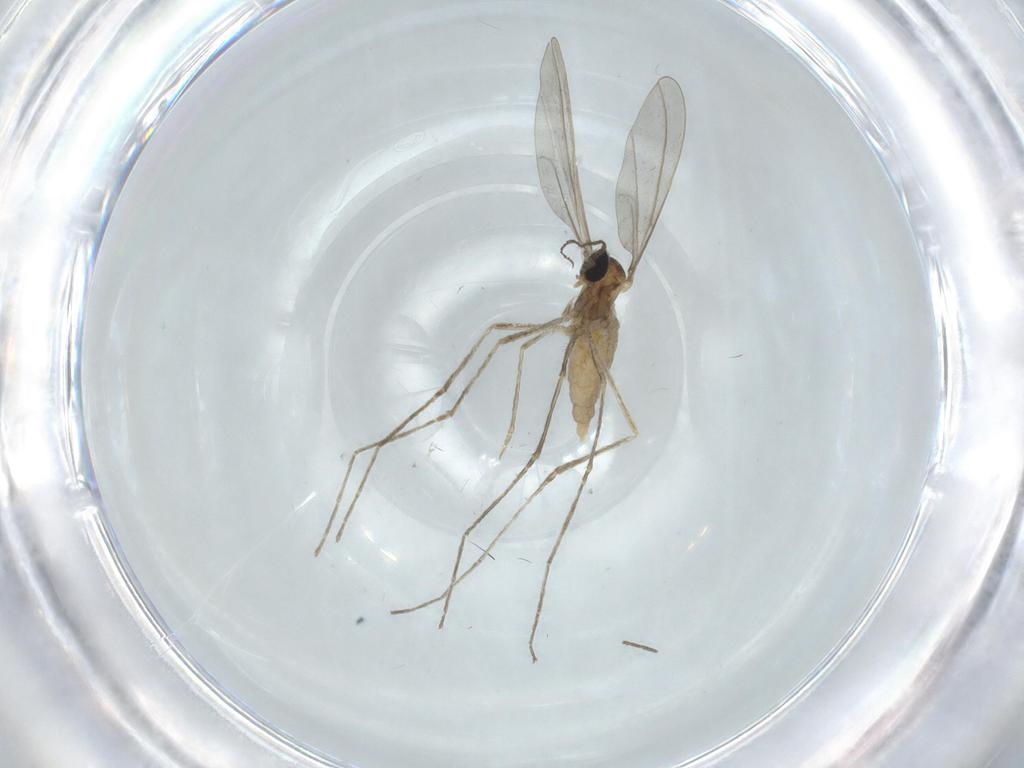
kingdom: Animalia
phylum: Arthropoda
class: Insecta
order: Diptera
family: Cecidomyiidae
